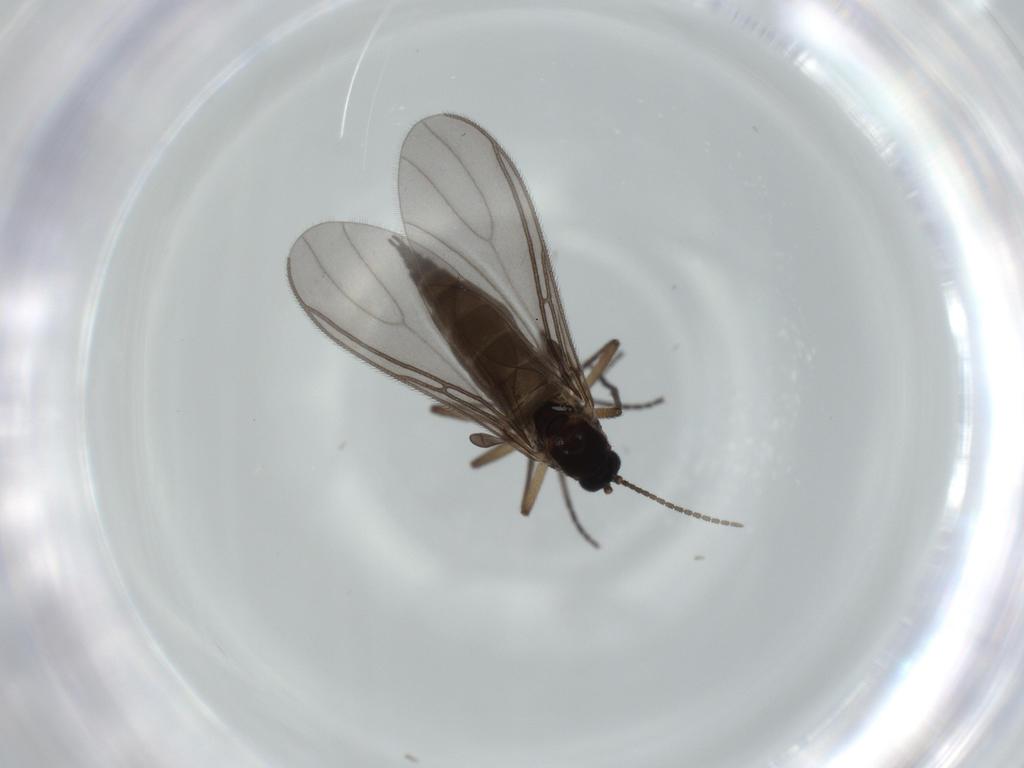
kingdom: Animalia
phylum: Arthropoda
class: Insecta
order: Diptera
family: Sciaridae
